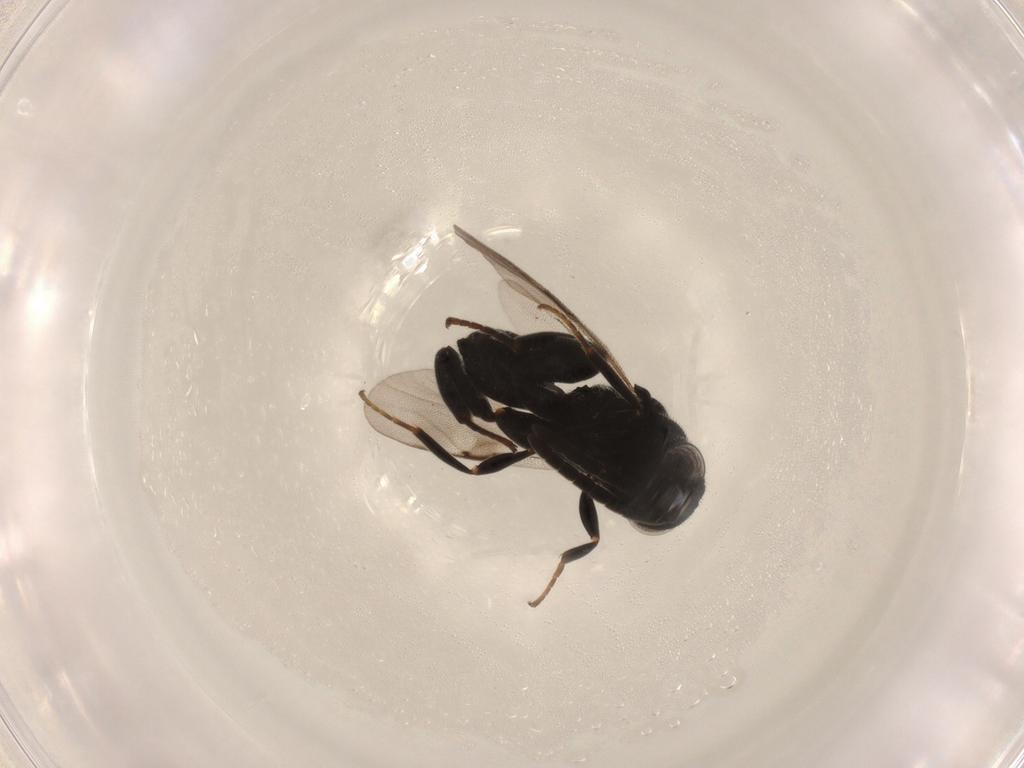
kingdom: Animalia
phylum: Arthropoda
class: Insecta
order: Hymenoptera
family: Chalcididae
